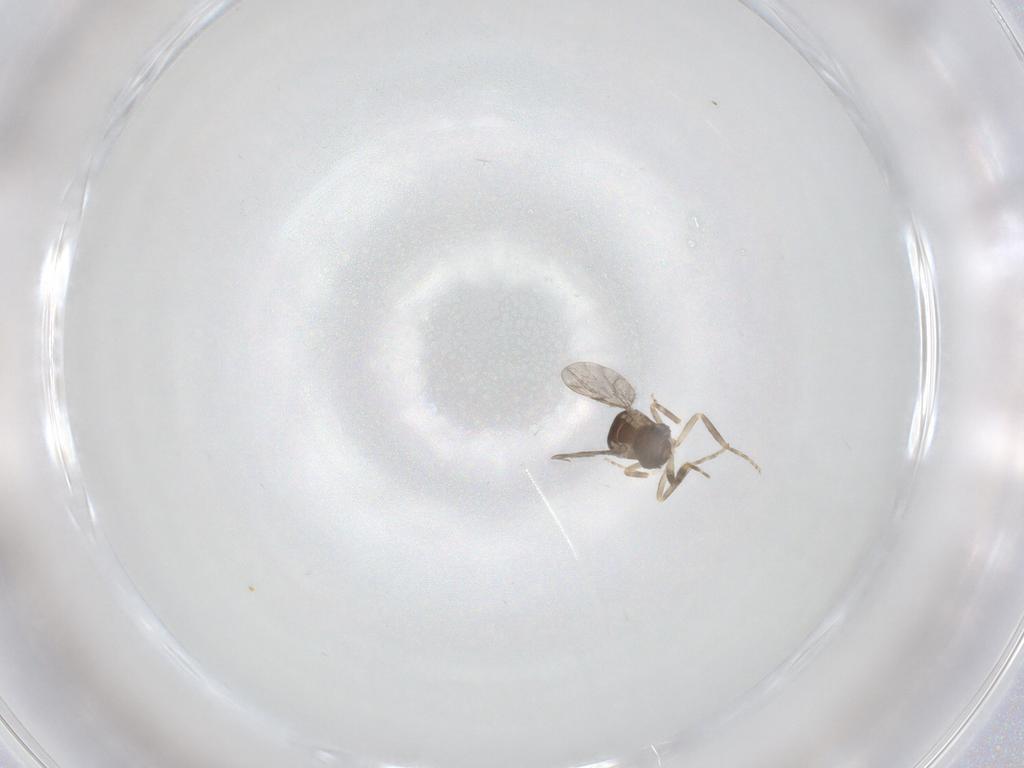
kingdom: Animalia
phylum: Arthropoda
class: Insecta
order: Diptera
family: Ceratopogonidae
